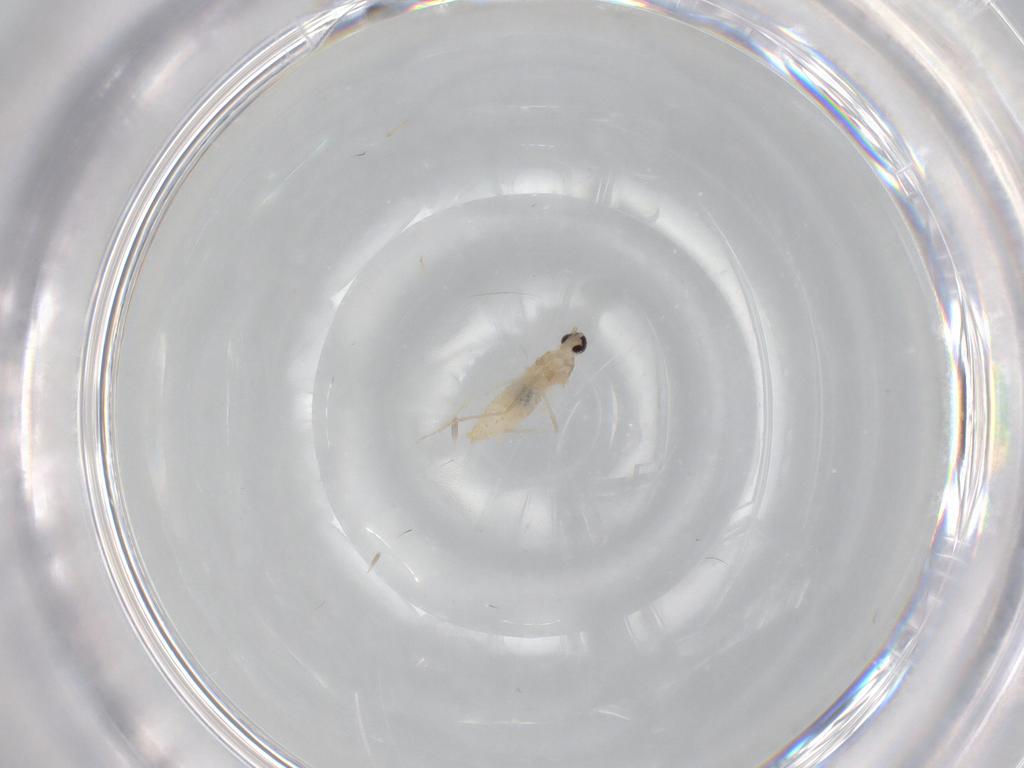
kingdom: Animalia
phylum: Arthropoda
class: Insecta
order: Diptera
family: Cecidomyiidae
